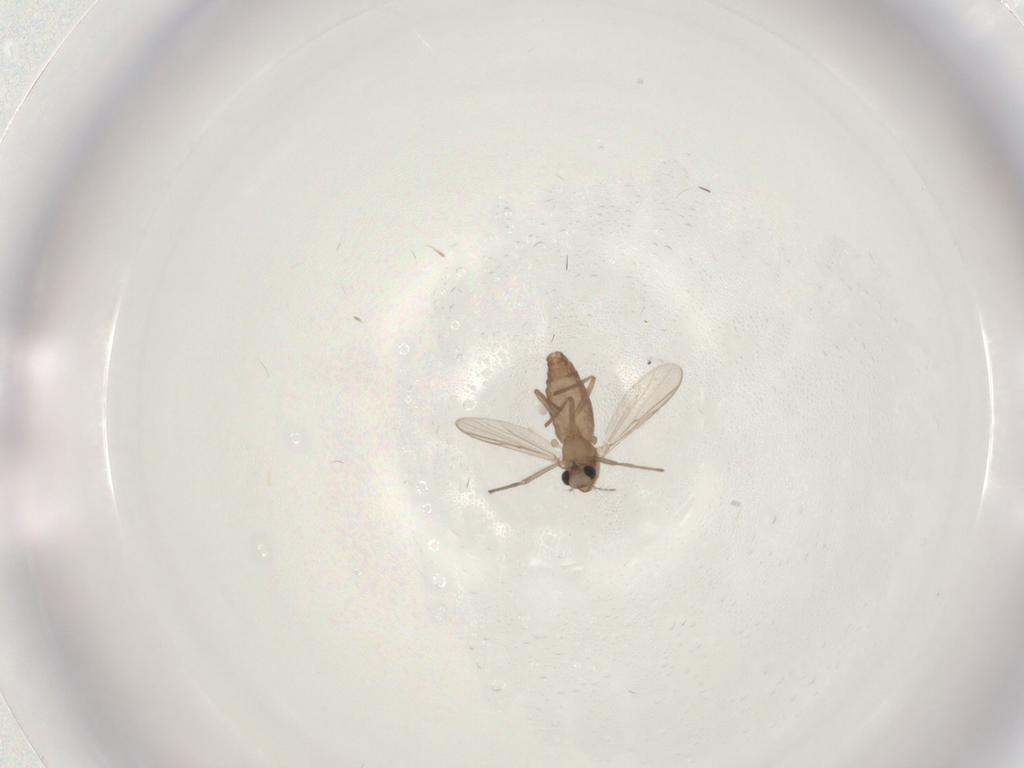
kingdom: Animalia
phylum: Arthropoda
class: Insecta
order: Diptera
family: Chironomidae
